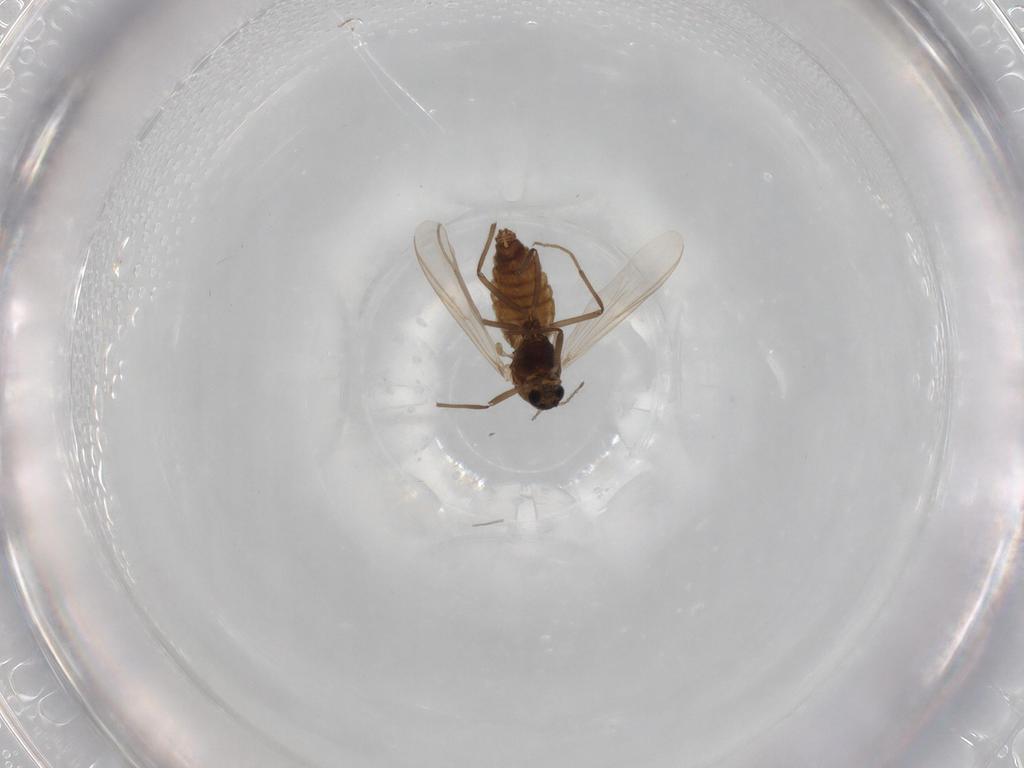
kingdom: Animalia
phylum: Arthropoda
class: Insecta
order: Diptera
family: Chironomidae
